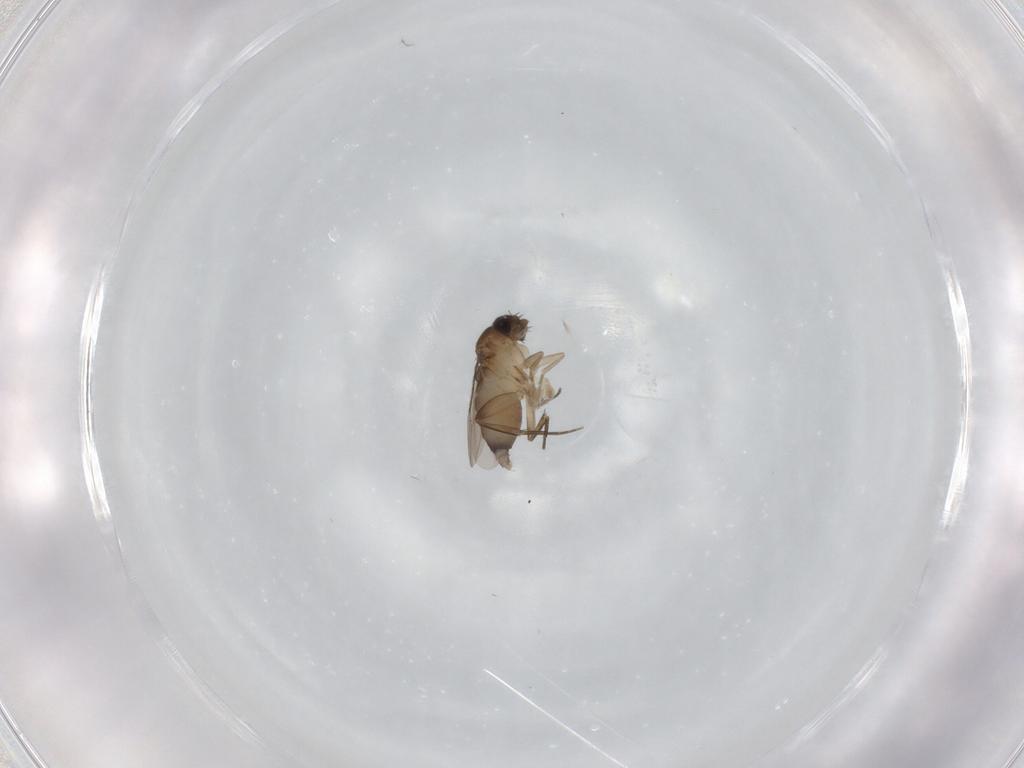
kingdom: Animalia
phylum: Arthropoda
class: Insecta
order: Diptera
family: Phoridae
